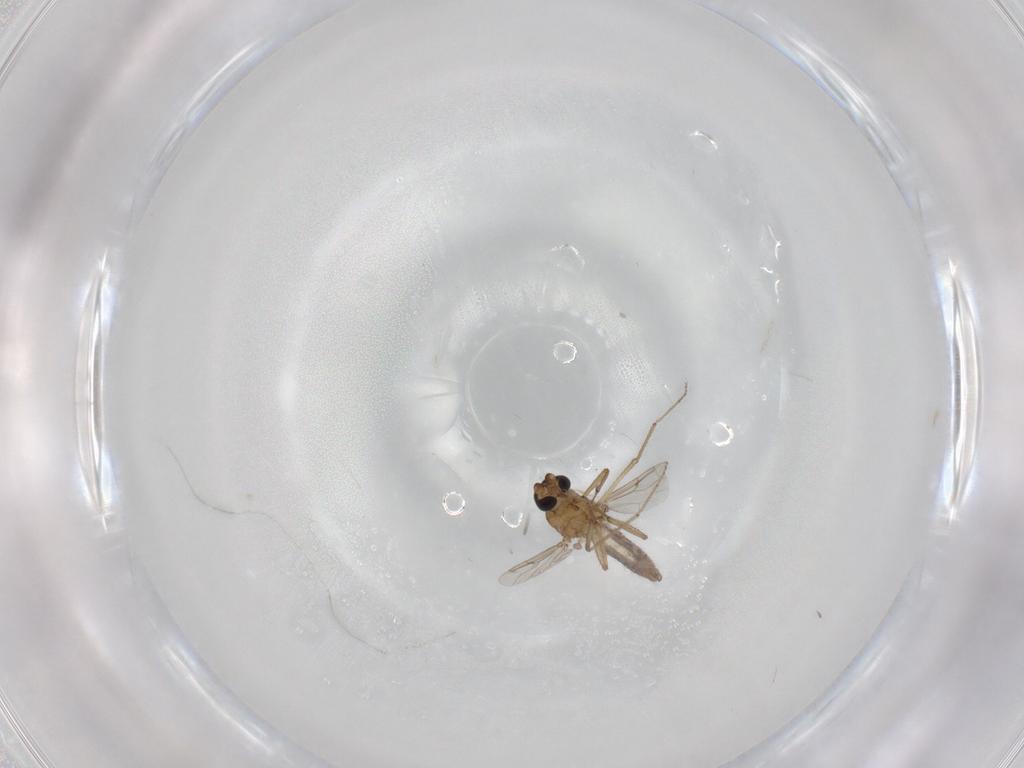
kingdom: Animalia
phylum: Arthropoda
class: Insecta
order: Diptera
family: Ceratopogonidae
